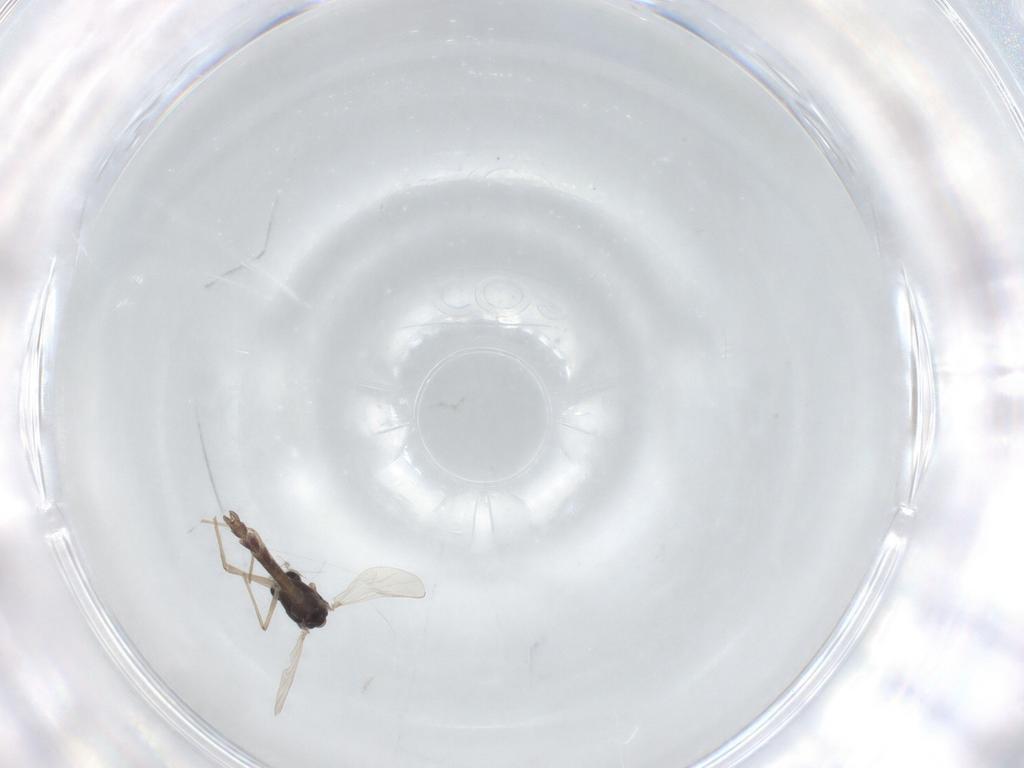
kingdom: Animalia
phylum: Arthropoda
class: Insecta
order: Diptera
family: Chironomidae
